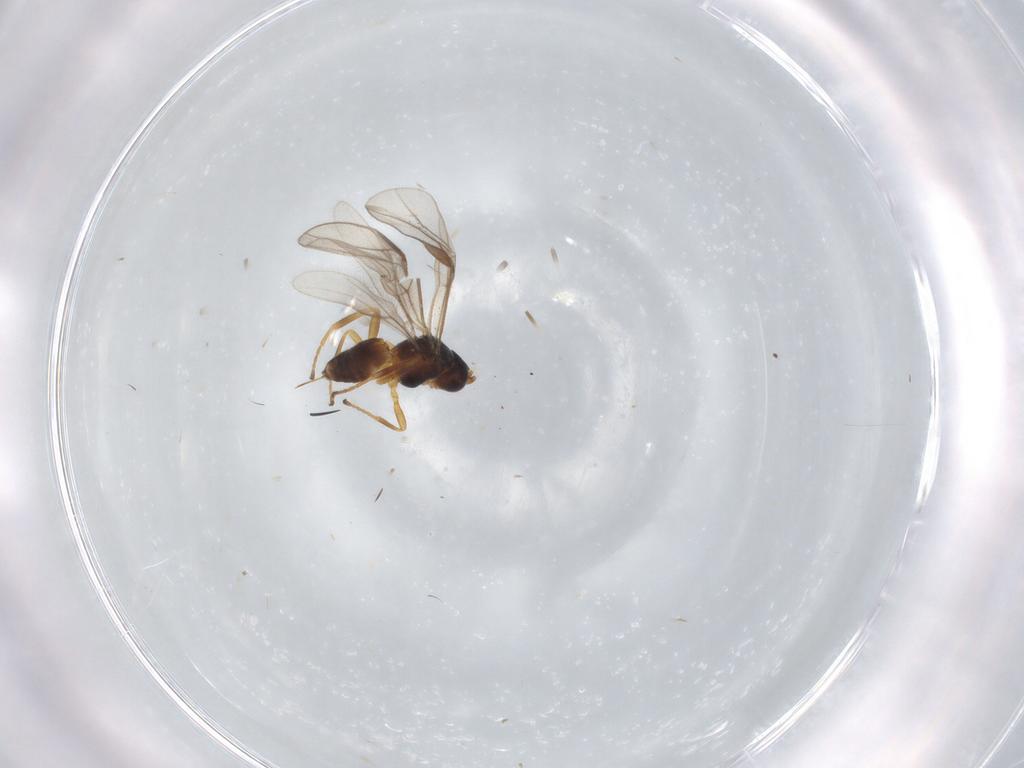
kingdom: Animalia
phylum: Arthropoda
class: Insecta
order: Hymenoptera
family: Braconidae
